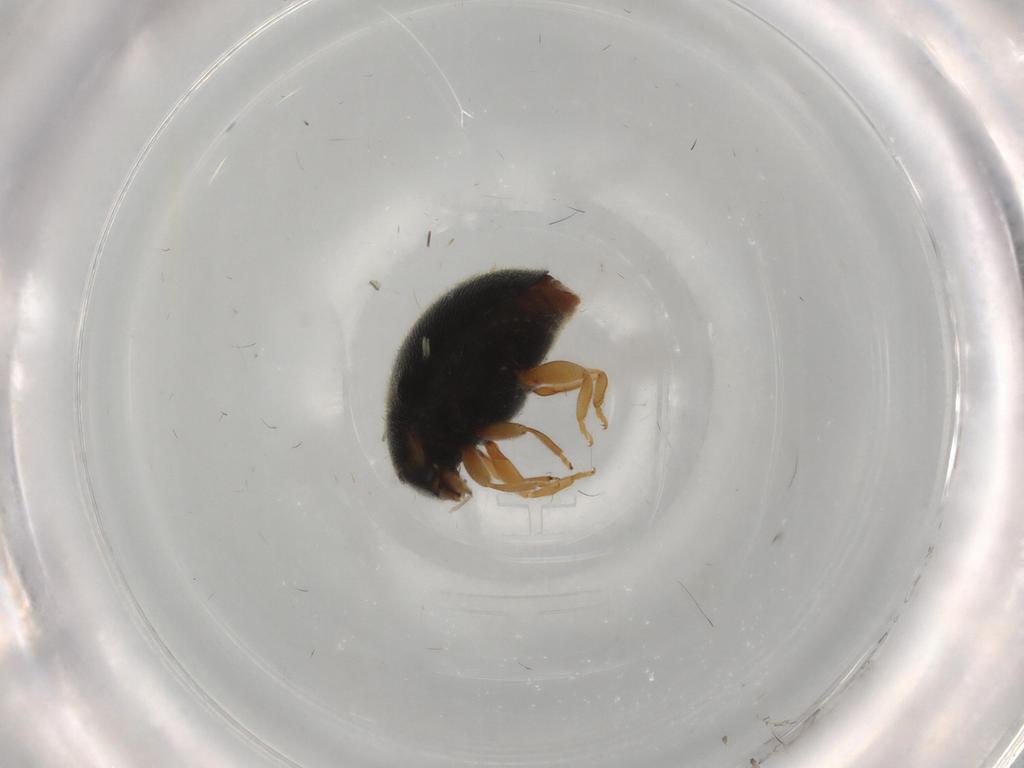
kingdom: Animalia
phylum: Arthropoda
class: Insecta
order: Coleoptera
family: Coccinellidae
